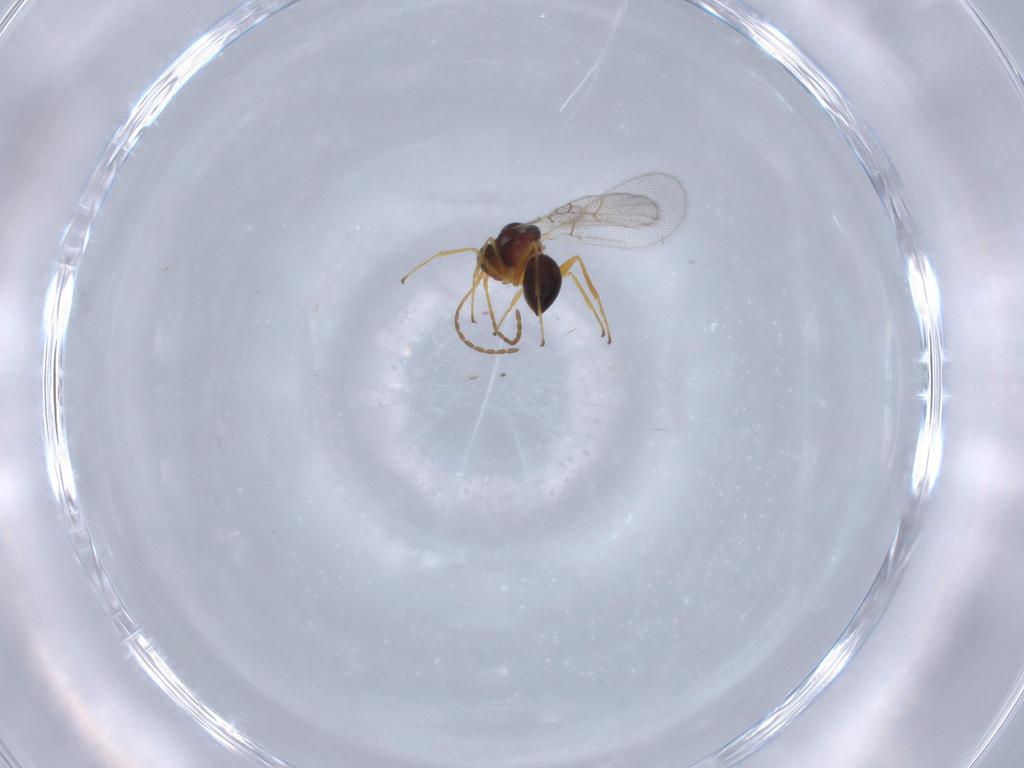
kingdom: Animalia
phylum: Arthropoda
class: Insecta
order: Hymenoptera
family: Figitidae
